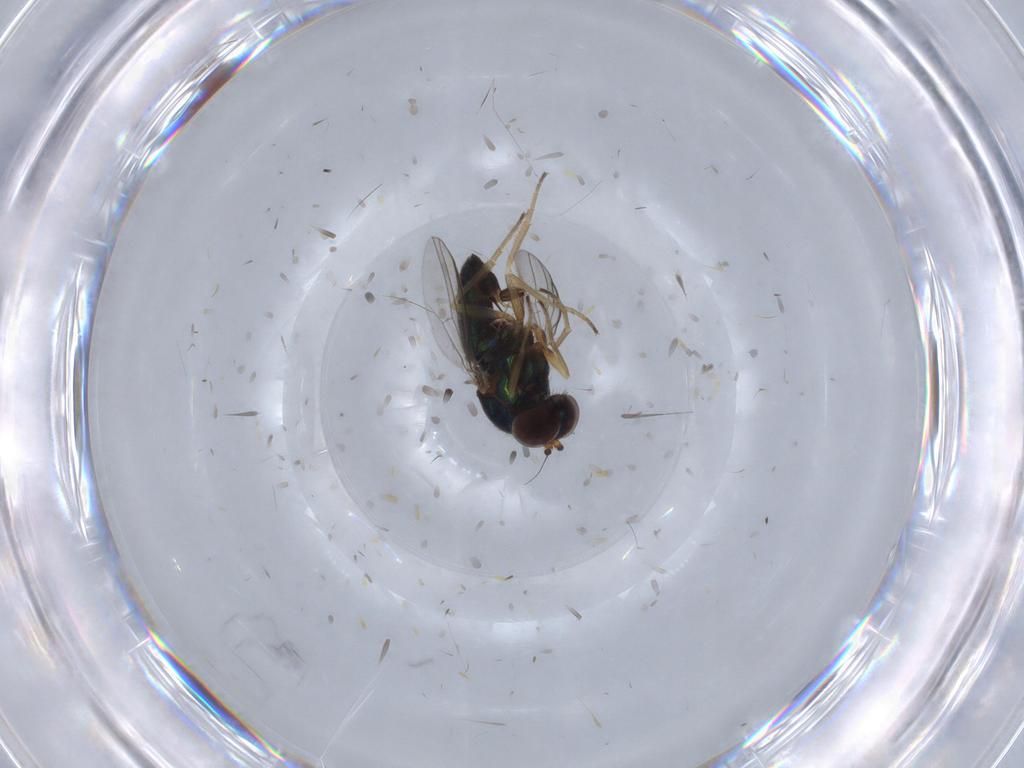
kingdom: Animalia
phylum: Arthropoda
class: Insecta
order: Diptera
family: Dolichopodidae
